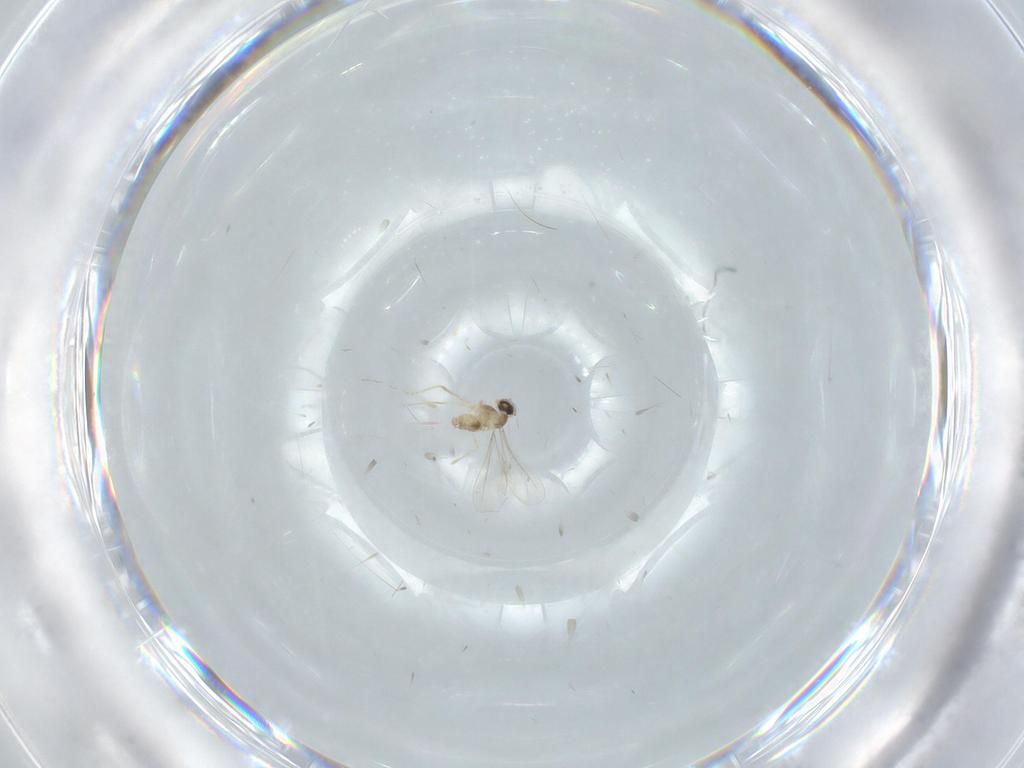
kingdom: Animalia
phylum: Arthropoda
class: Insecta
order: Diptera
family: Cecidomyiidae
